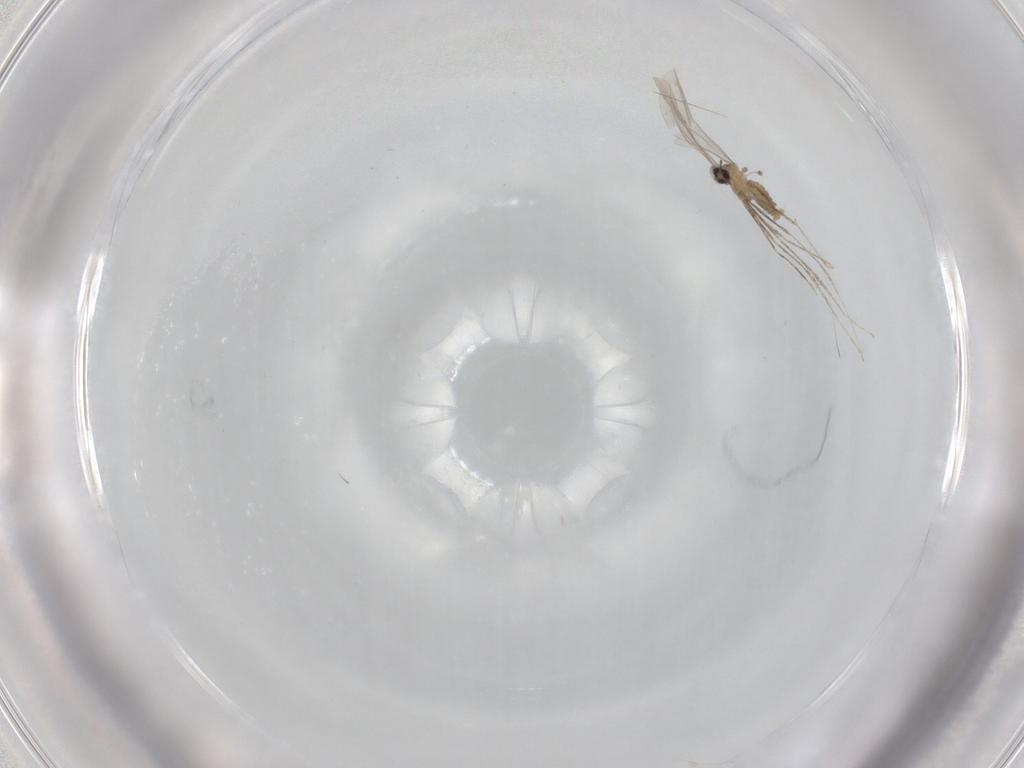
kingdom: Animalia
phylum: Arthropoda
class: Insecta
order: Diptera
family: Cecidomyiidae
